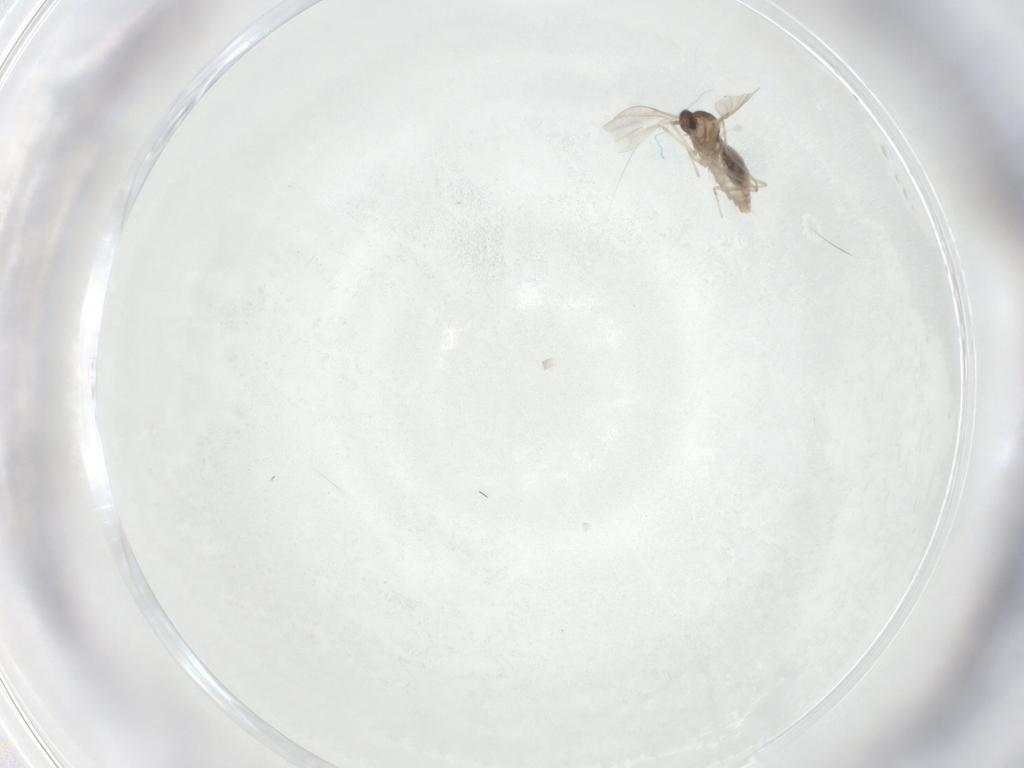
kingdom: Animalia
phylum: Arthropoda
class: Insecta
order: Diptera
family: Cecidomyiidae
